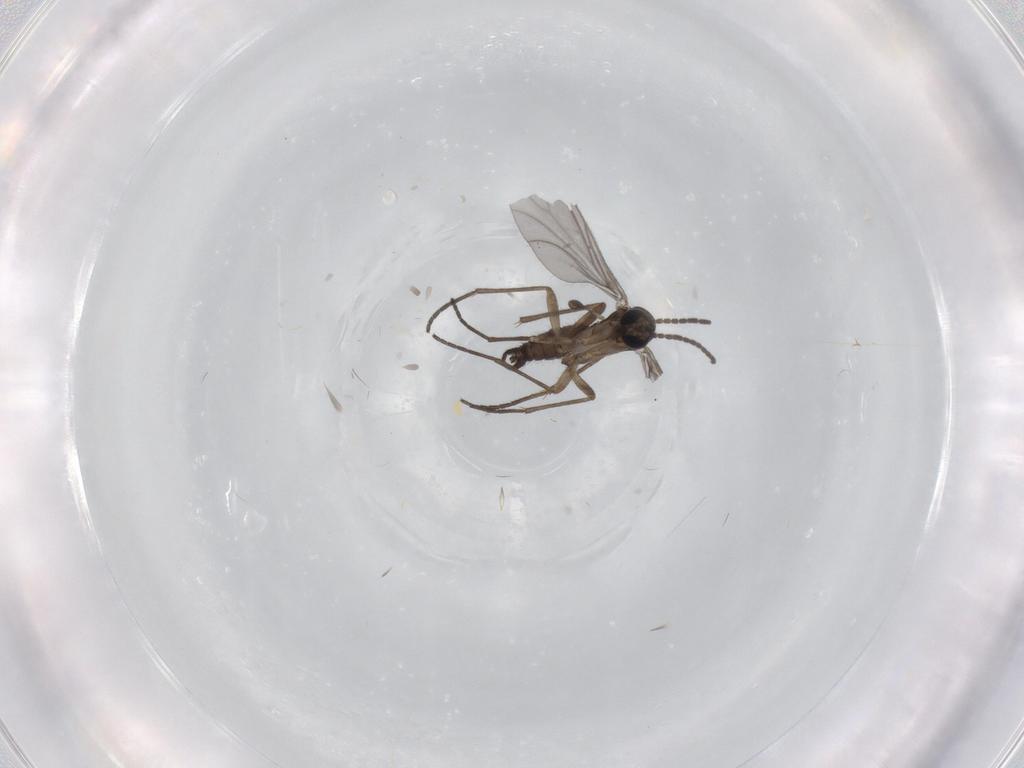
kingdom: Animalia
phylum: Arthropoda
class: Insecta
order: Diptera
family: Sciaridae
